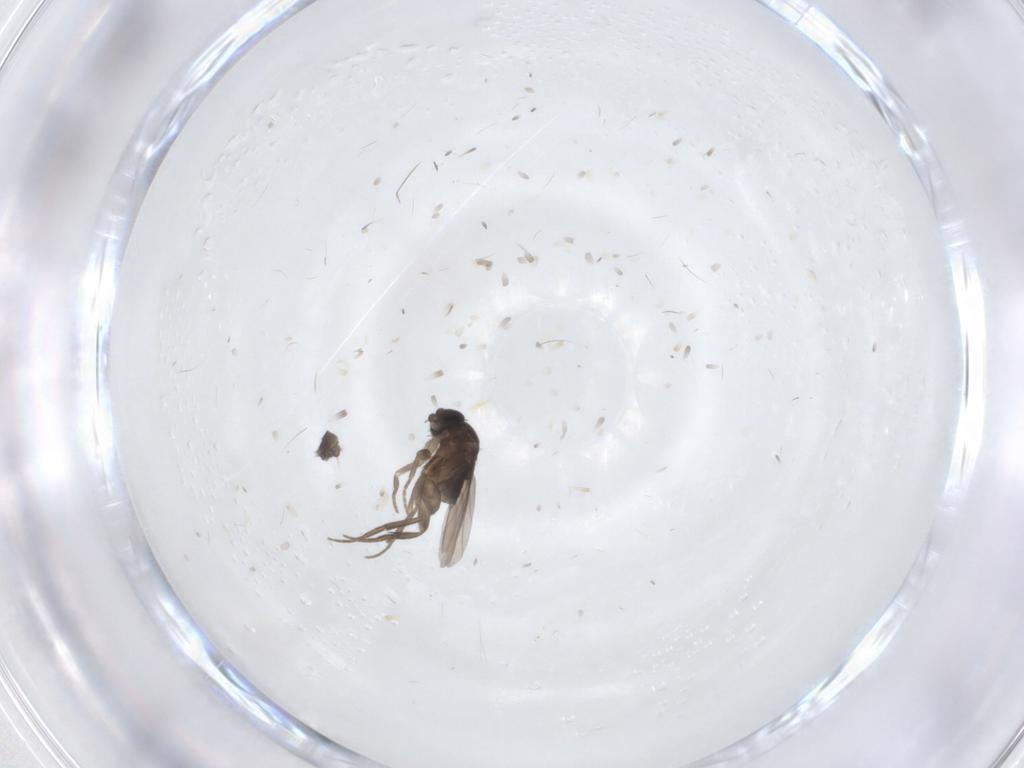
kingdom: Animalia
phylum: Arthropoda
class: Insecta
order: Diptera
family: Phoridae
